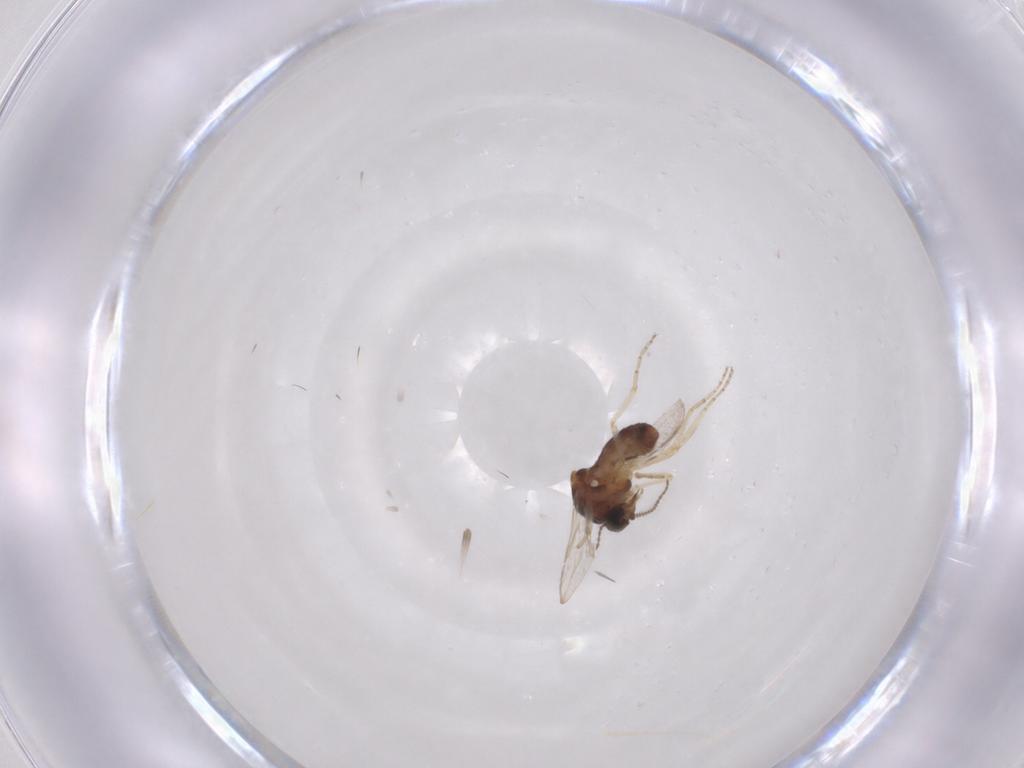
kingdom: Animalia
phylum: Arthropoda
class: Insecta
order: Diptera
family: Ceratopogonidae
